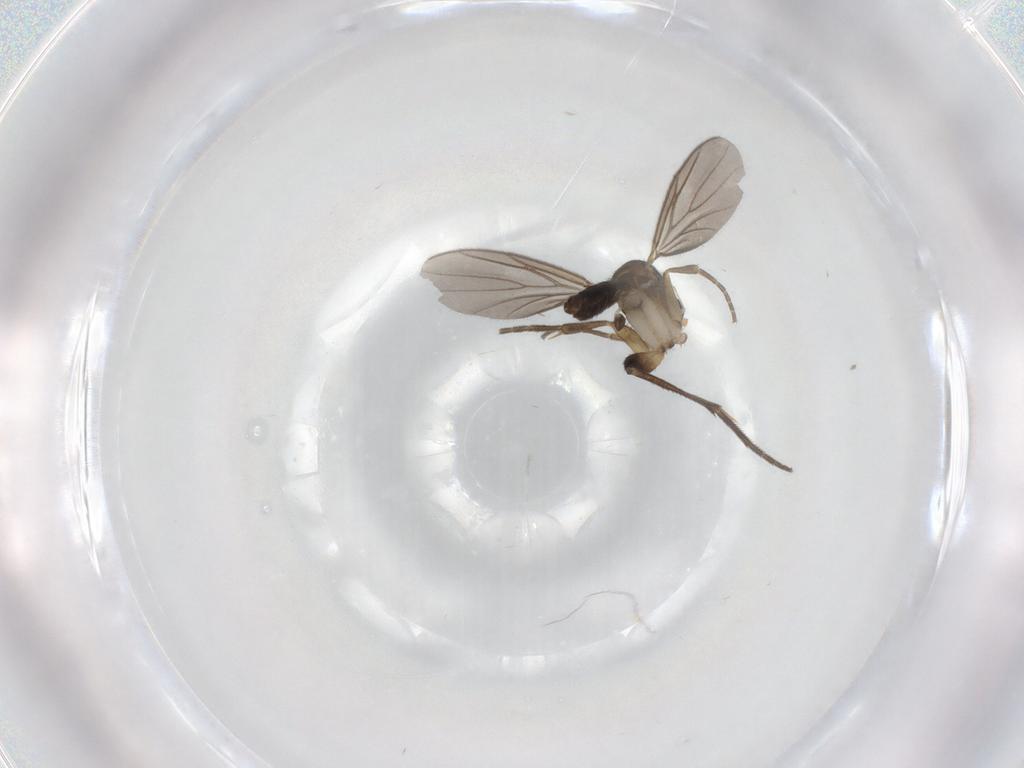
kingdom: Animalia
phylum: Arthropoda
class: Insecta
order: Diptera
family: Mycetophilidae
